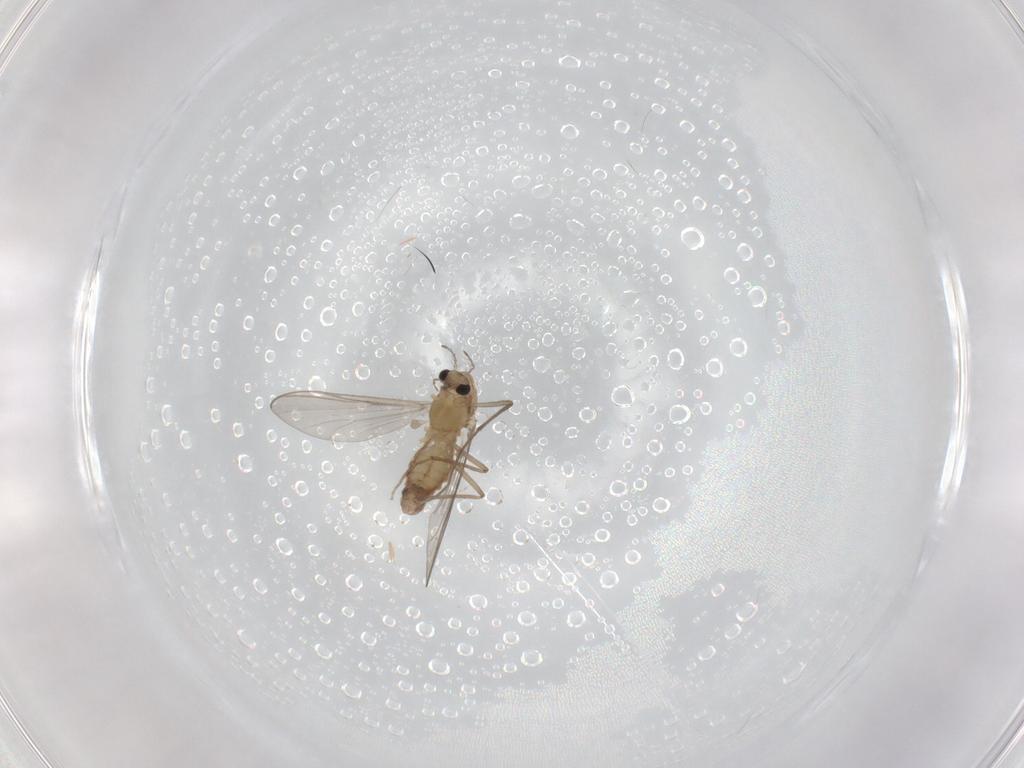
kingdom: Animalia
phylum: Arthropoda
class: Insecta
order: Diptera
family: Chironomidae
